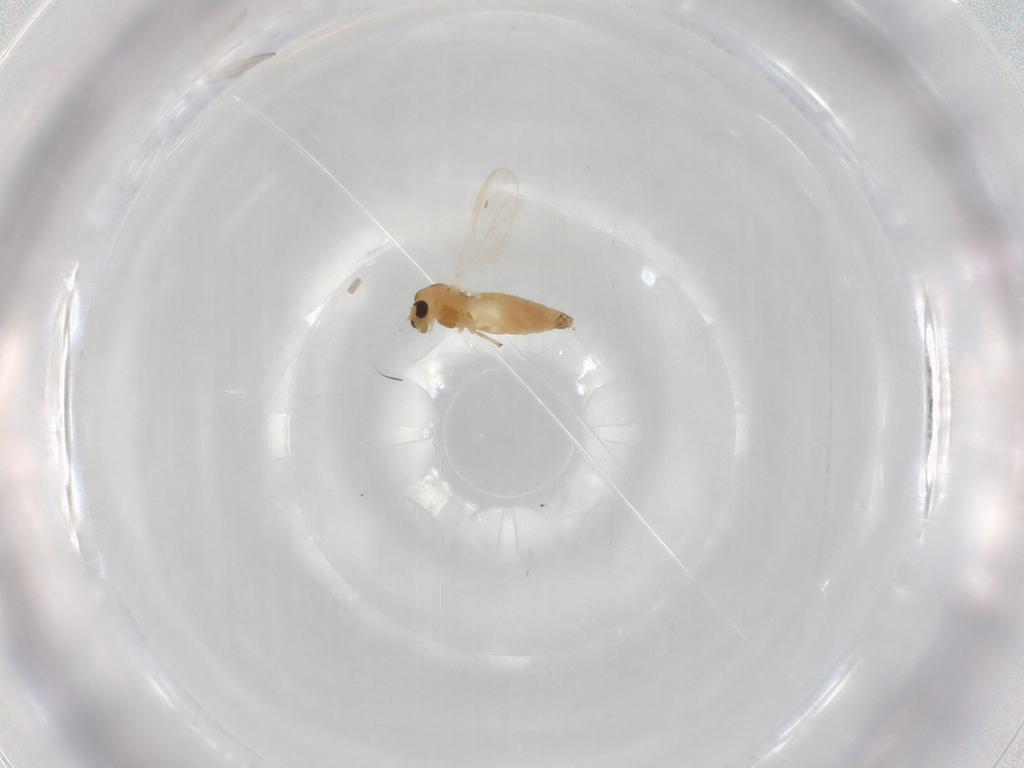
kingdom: Animalia
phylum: Arthropoda
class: Insecta
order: Diptera
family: Chironomidae
